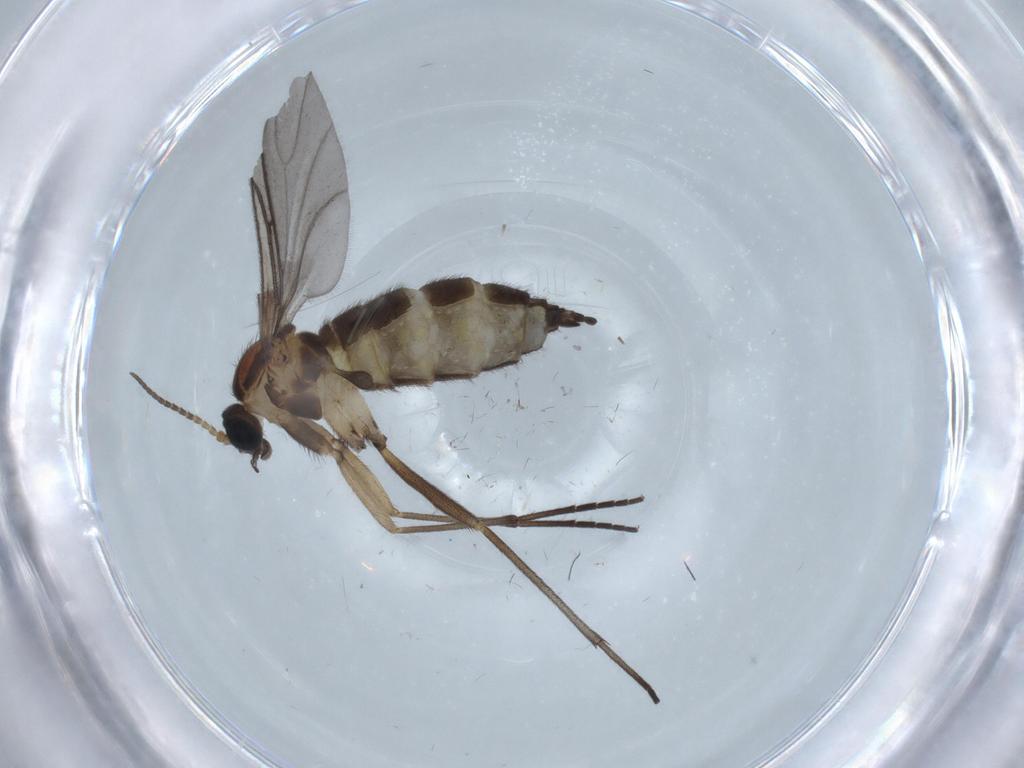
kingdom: Animalia
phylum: Arthropoda
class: Insecta
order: Diptera
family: Sciaridae
